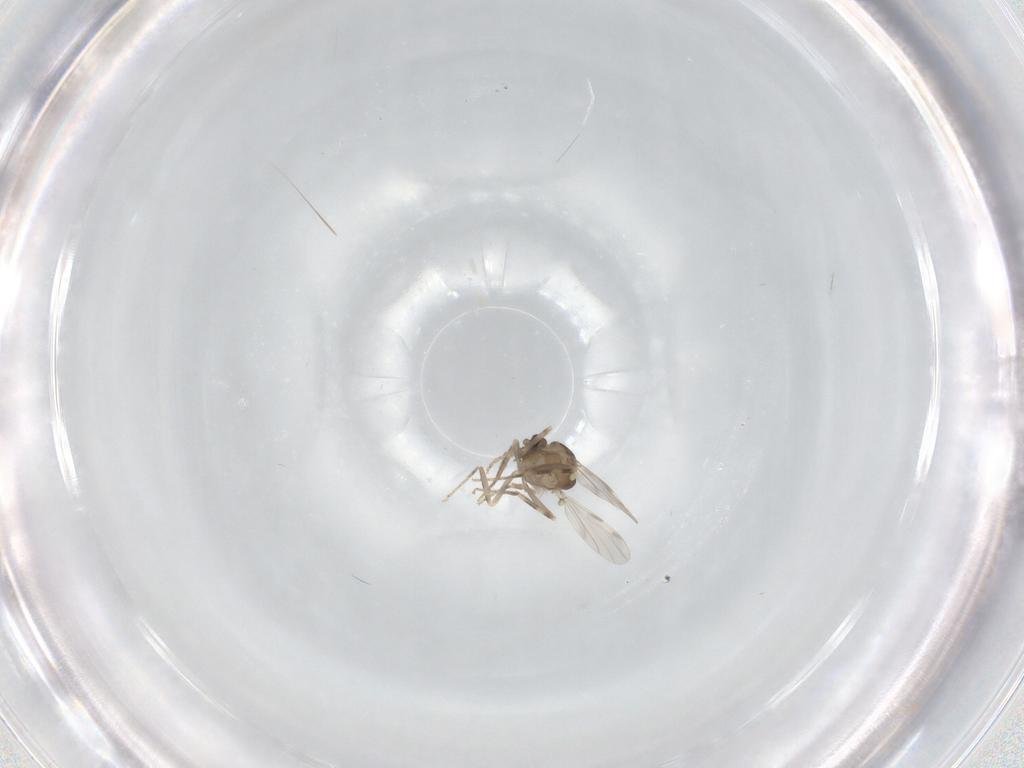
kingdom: Animalia
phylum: Arthropoda
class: Insecta
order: Diptera
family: Ceratopogonidae
